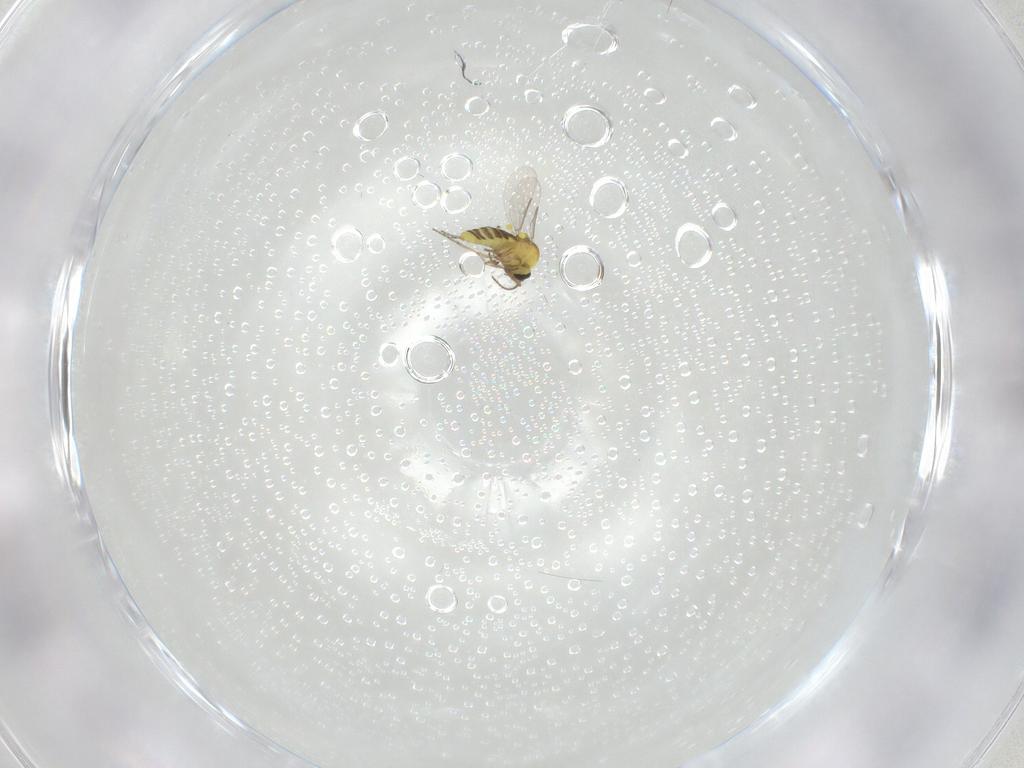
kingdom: Animalia
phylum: Arthropoda
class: Insecta
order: Diptera
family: Ceratopogonidae
